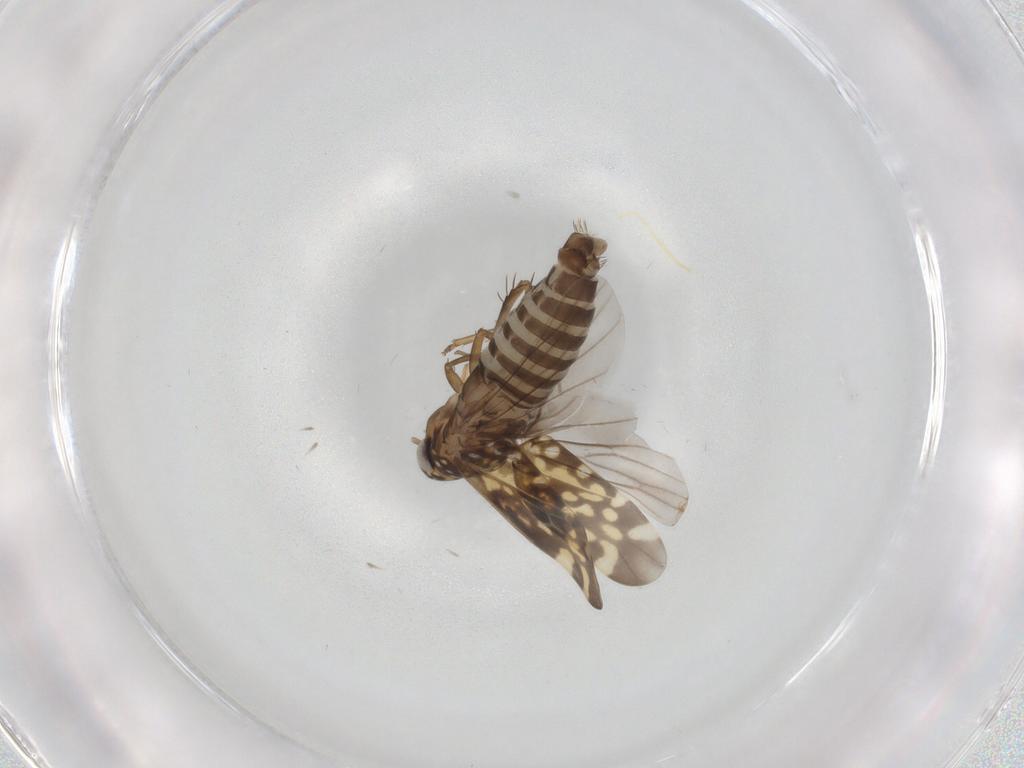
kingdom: Animalia
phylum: Arthropoda
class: Insecta
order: Hemiptera
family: Cicadellidae
